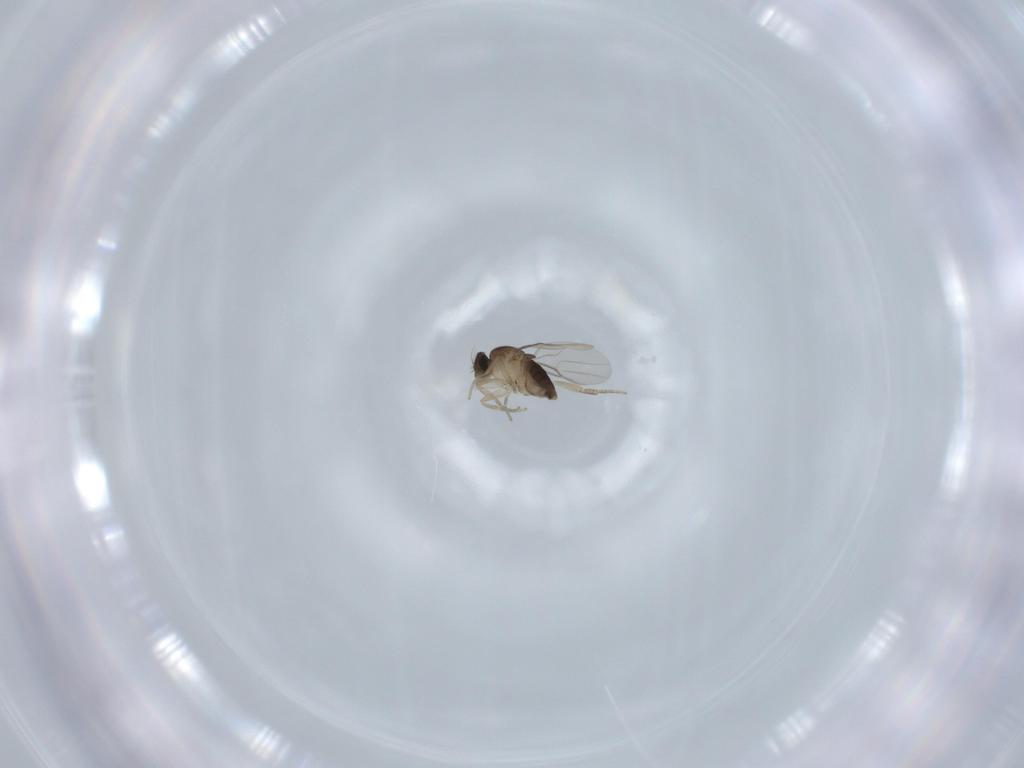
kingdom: Animalia
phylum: Arthropoda
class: Insecta
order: Diptera
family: Phoridae
